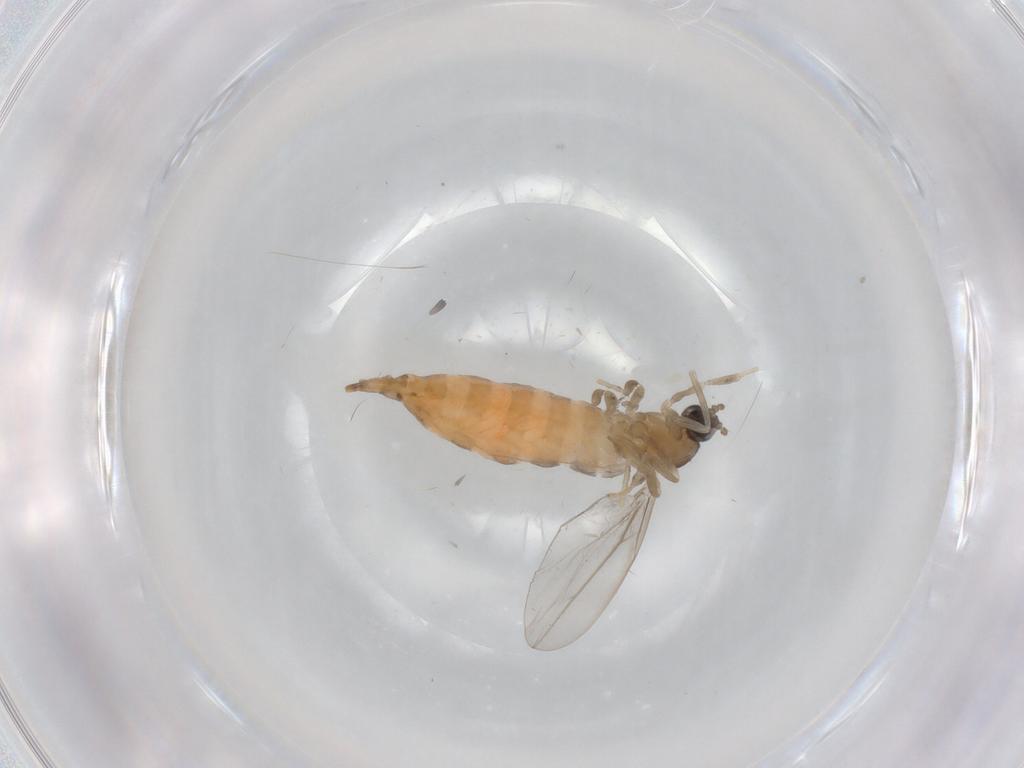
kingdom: Animalia
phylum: Arthropoda
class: Insecta
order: Diptera
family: Cecidomyiidae
